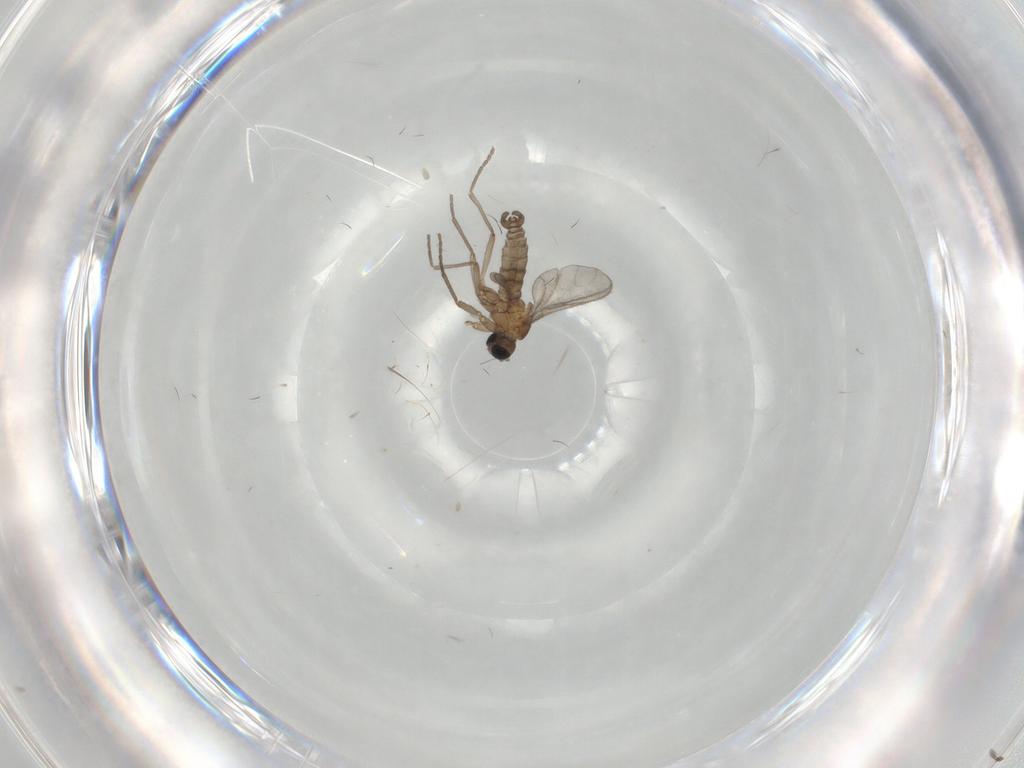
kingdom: Animalia
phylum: Arthropoda
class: Insecta
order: Diptera
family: Sciaridae
